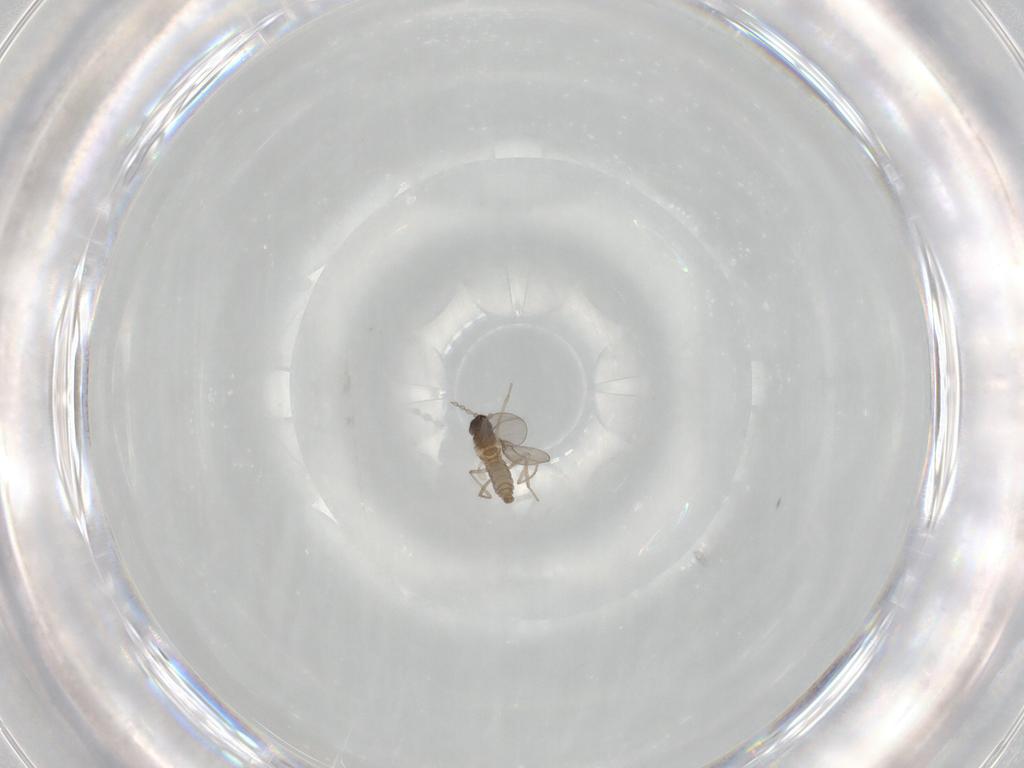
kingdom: Animalia
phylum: Arthropoda
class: Insecta
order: Diptera
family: Cecidomyiidae
